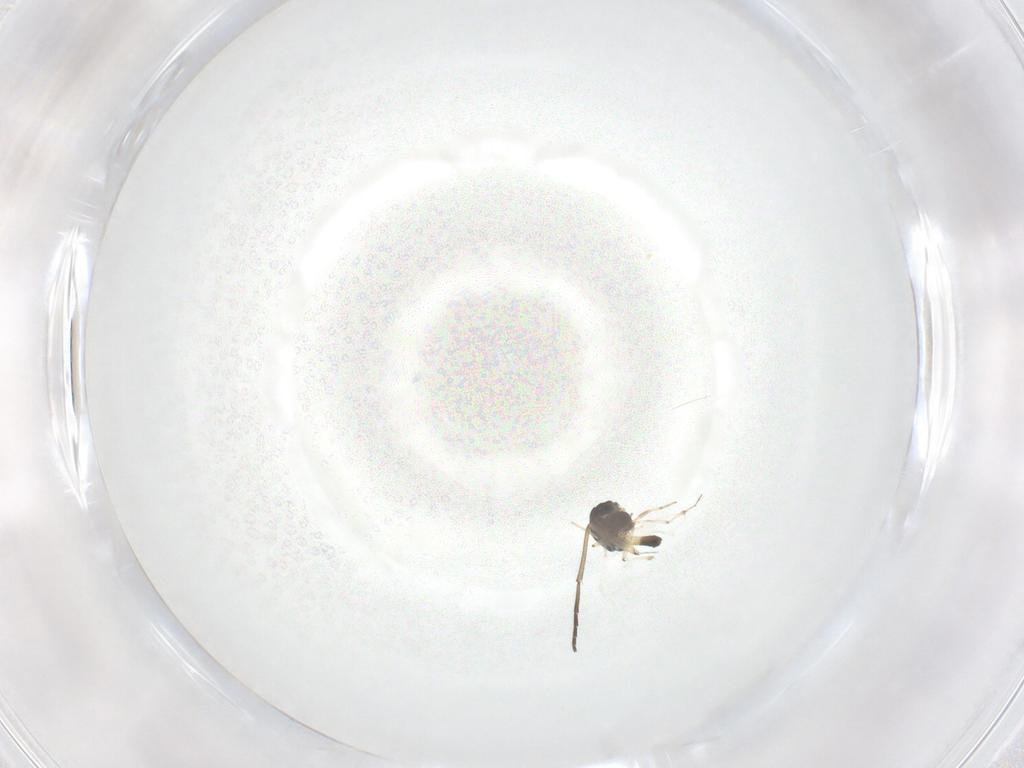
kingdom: Animalia
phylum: Arthropoda
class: Insecta
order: Diptera
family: Chironomidae
